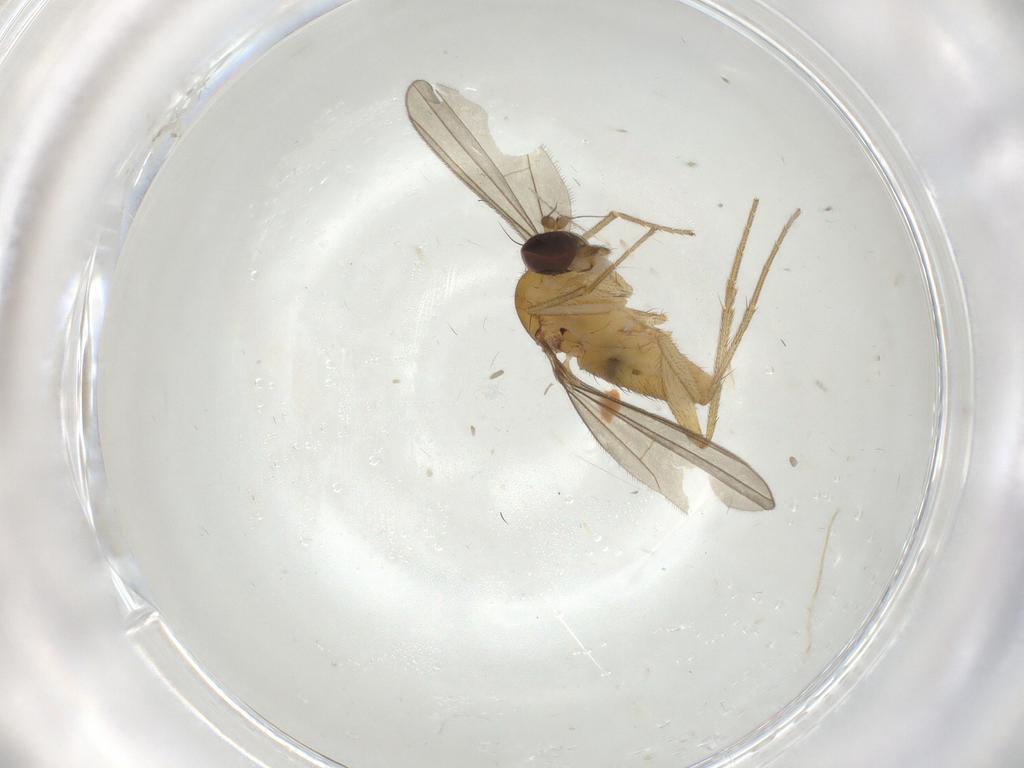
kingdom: Animalia
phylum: Arthropoda
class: Insecta
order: Diptera
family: Dolichopodidae
